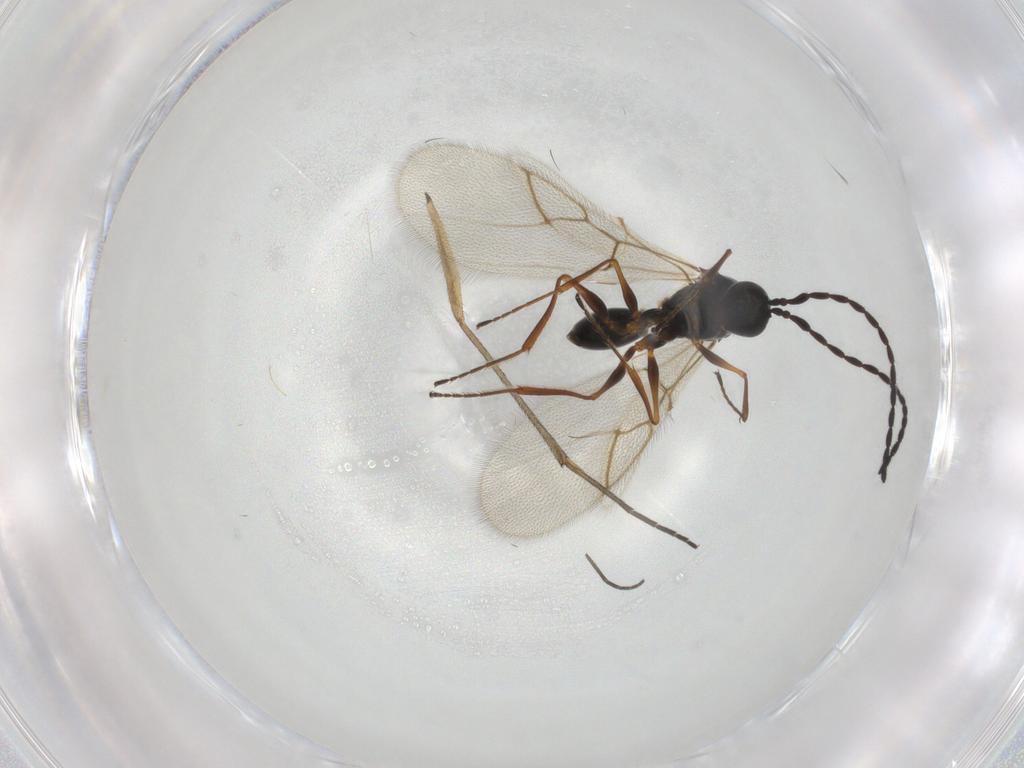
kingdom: Animalia
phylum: Arthropoda
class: Insecta
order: Hymenoptera
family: Figitidae
